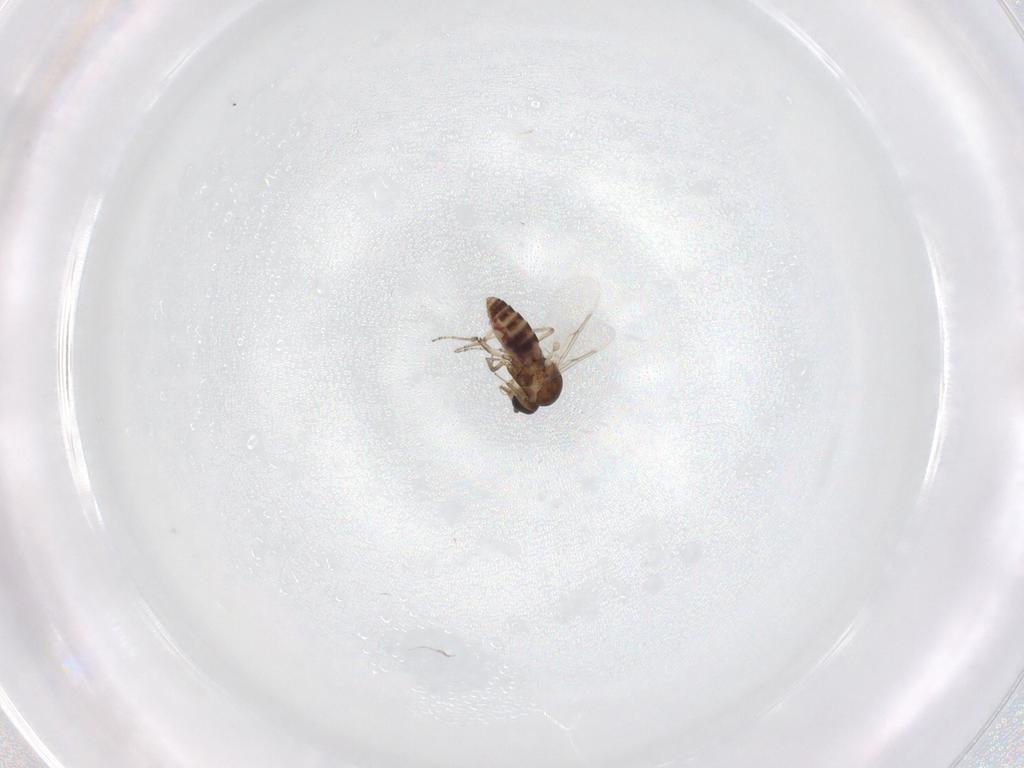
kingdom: Animalia
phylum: Arthropoda
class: Insecta
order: Diptera
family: Ceratopogonidae
